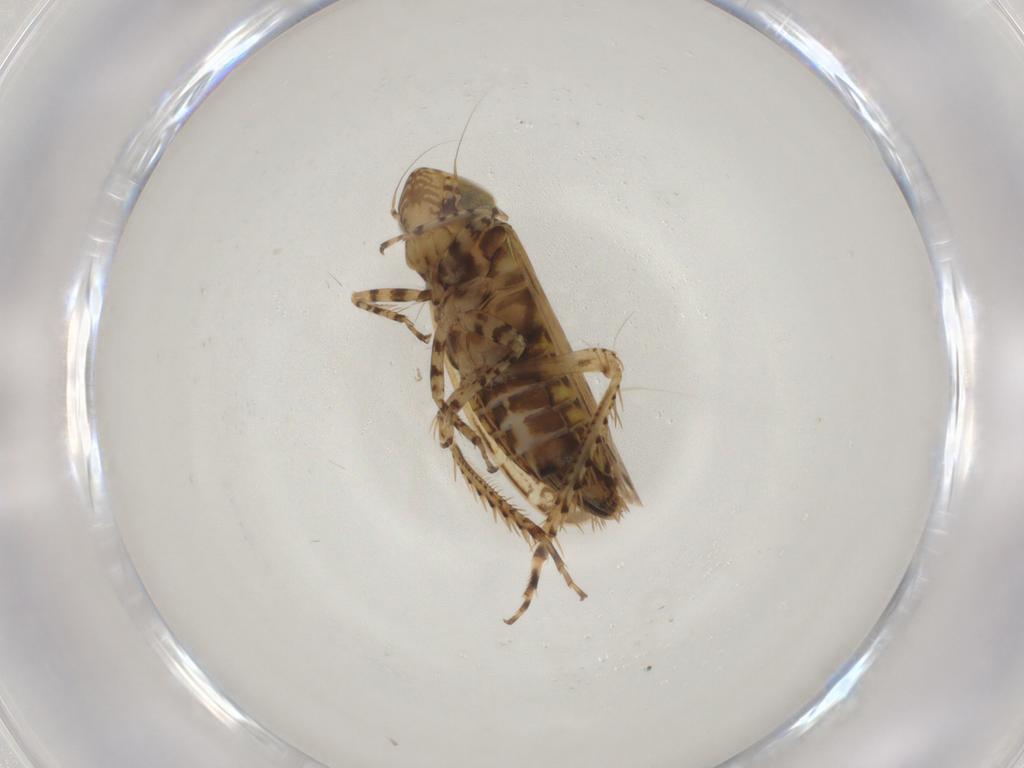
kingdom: Animalia
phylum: Arthropoda
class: Insecta
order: Hemiptera
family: Cicadellidae
